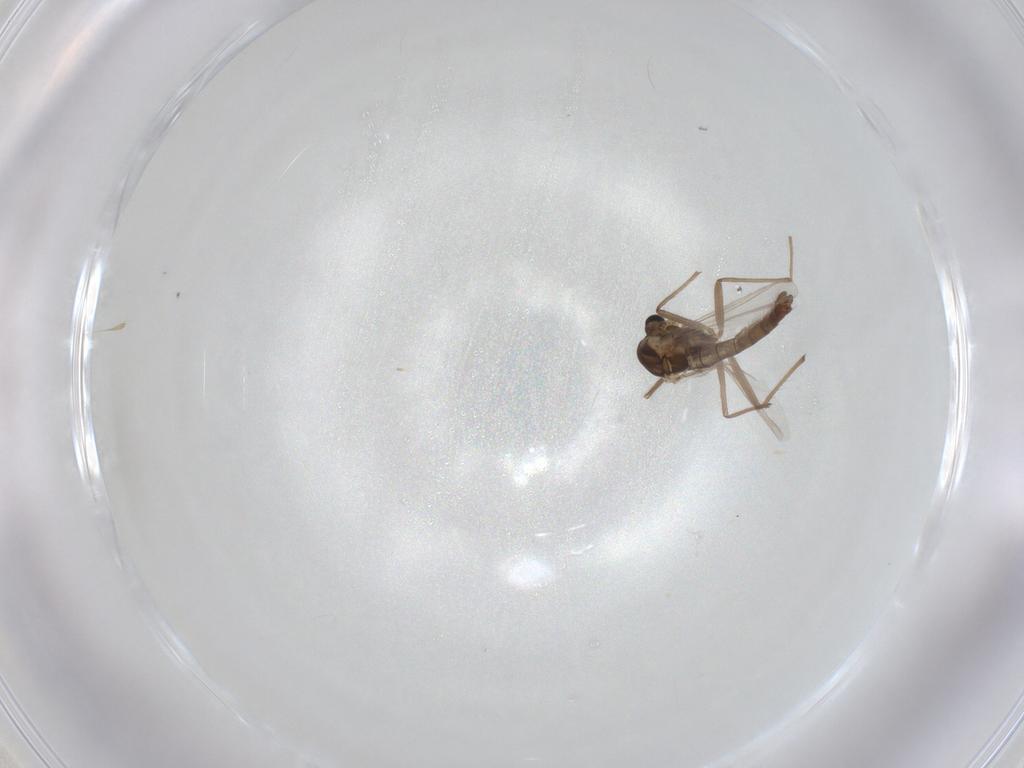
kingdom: Animalia
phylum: Arthropoda
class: Insecta
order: Diptera
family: Chironomidae
